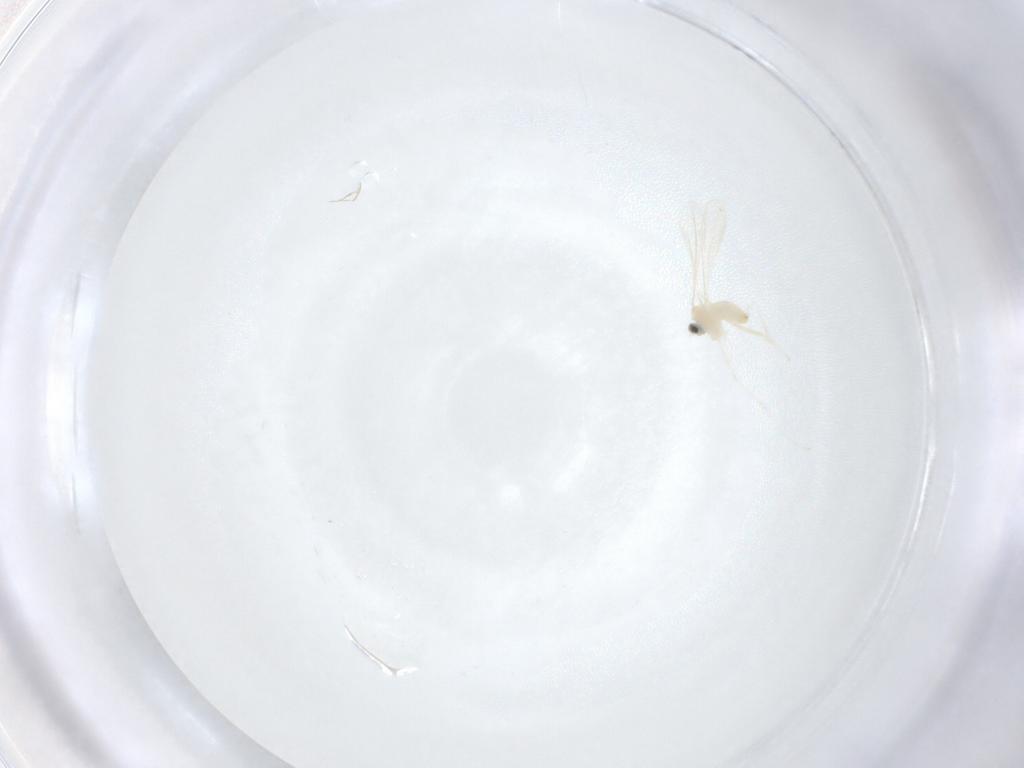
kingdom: Animalia
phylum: Arthropoda
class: Insecta
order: Diptera
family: Cecidomyiidae
